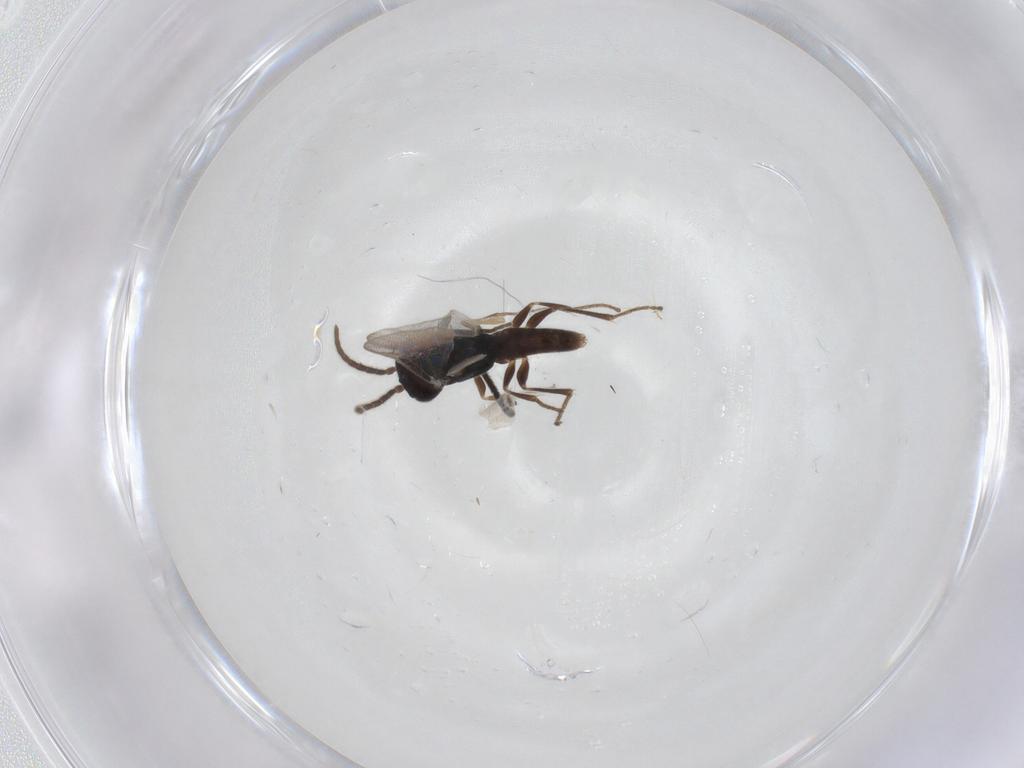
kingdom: Animalia
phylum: Arthropoda
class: Insecta
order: Hymenoptera
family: Dryinidae
